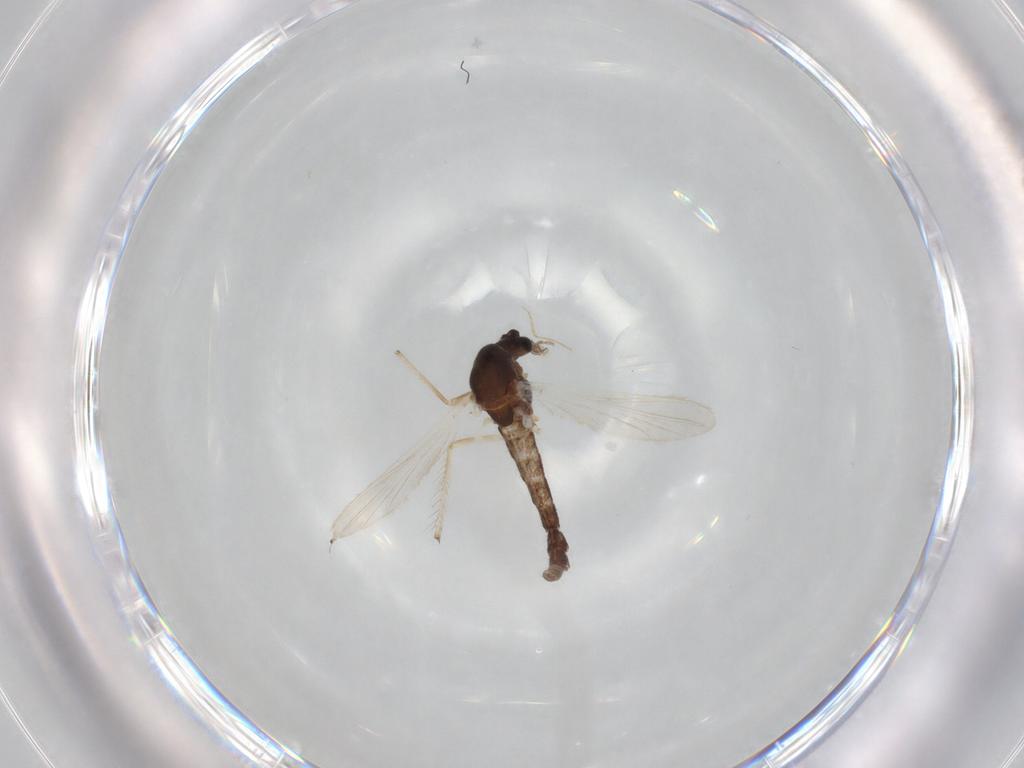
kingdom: Animalia
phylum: Arthropoda
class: Insecta
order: Diptera
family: Chironomidae
